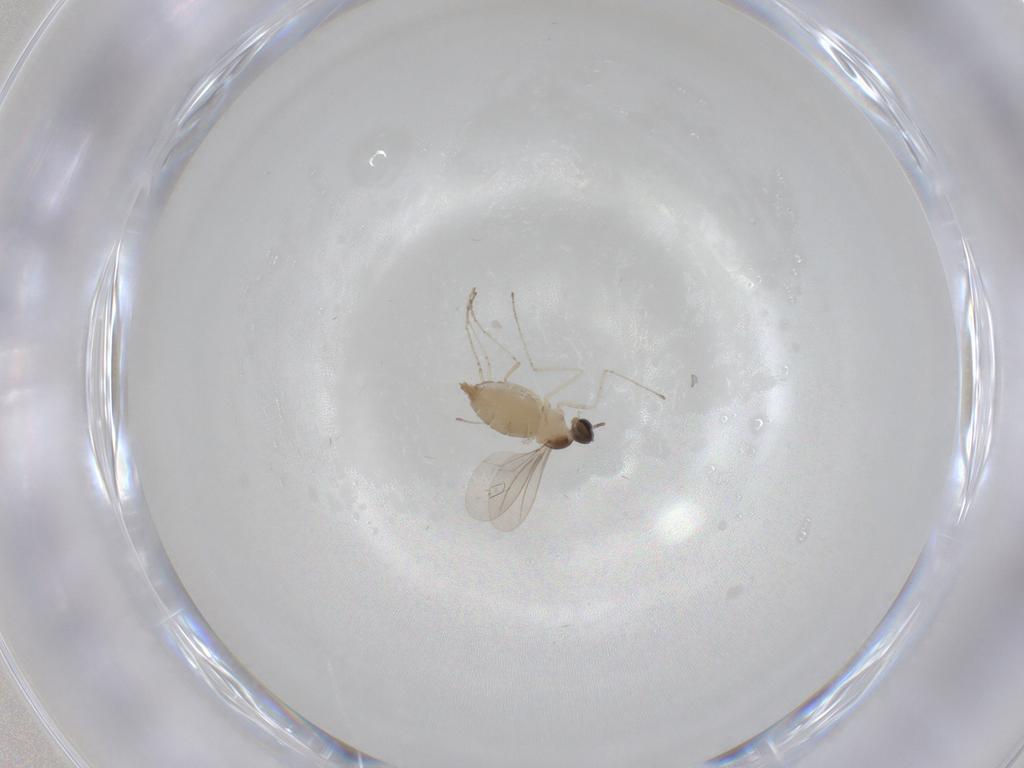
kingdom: Animalia
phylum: Arthropoda
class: Insecta
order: Diptera
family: Cecidomyiidae
